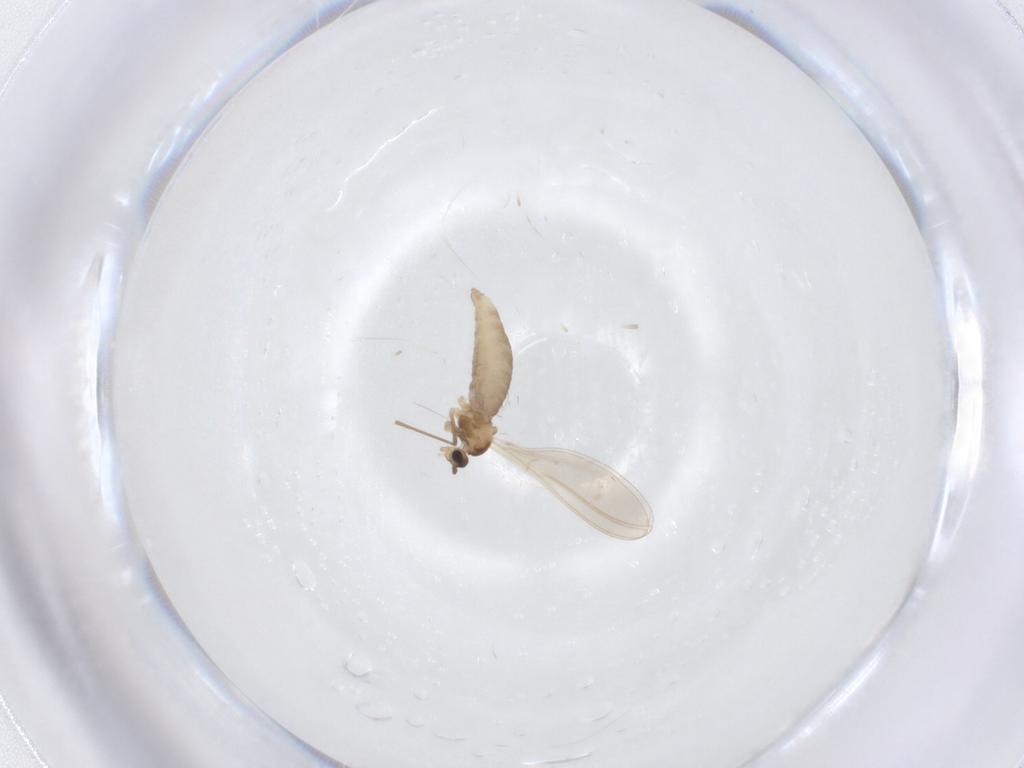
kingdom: Animalia
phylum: Arthropoda
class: Insecta
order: Diptera
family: Cecidomyiidae
